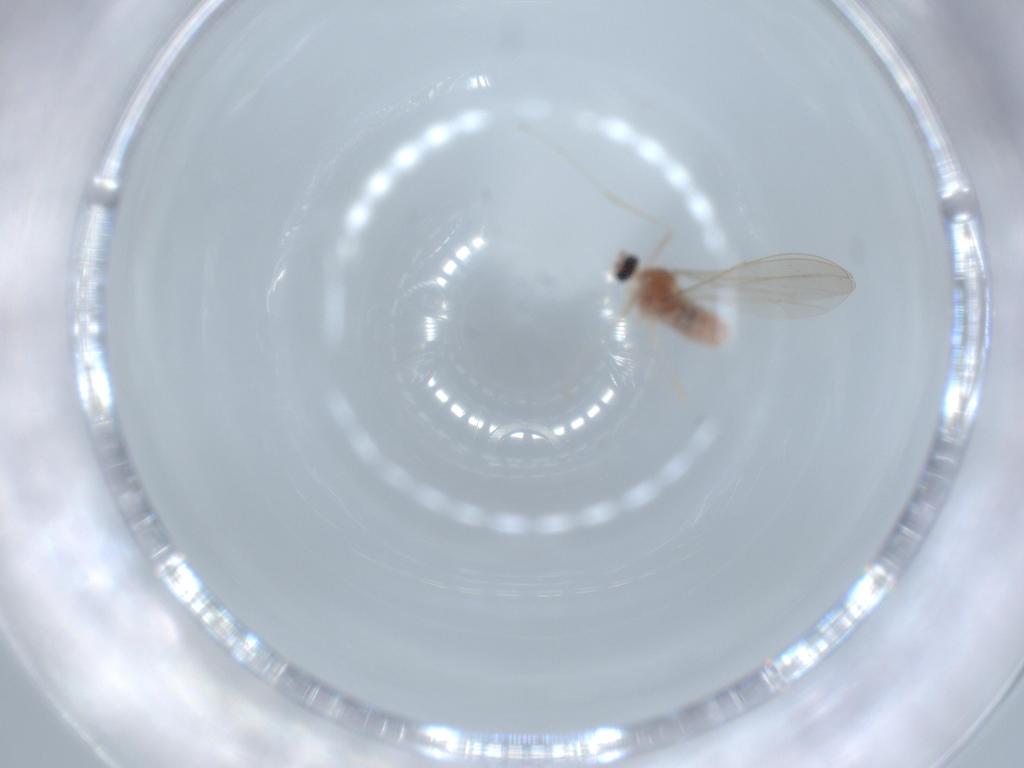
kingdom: Animalia
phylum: Arthropoda
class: Insecta
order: Diptera
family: Cecidomyiidae
